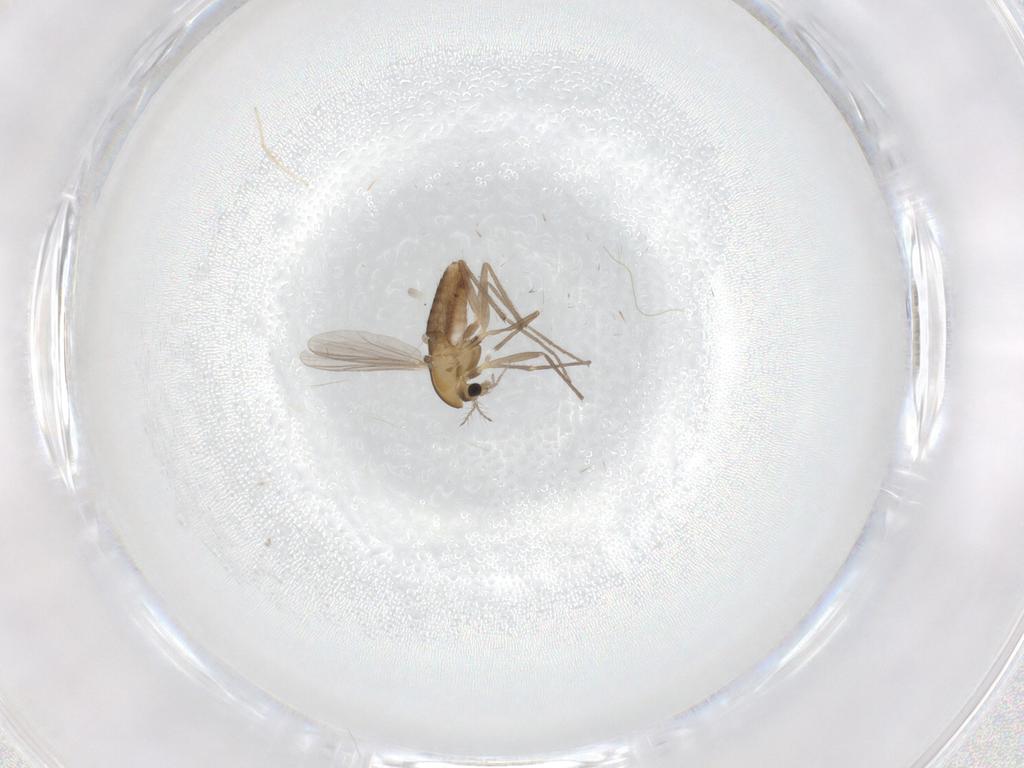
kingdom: Animalia
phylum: Arthropoda
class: Insecta
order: Diptera
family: Chironomidae
